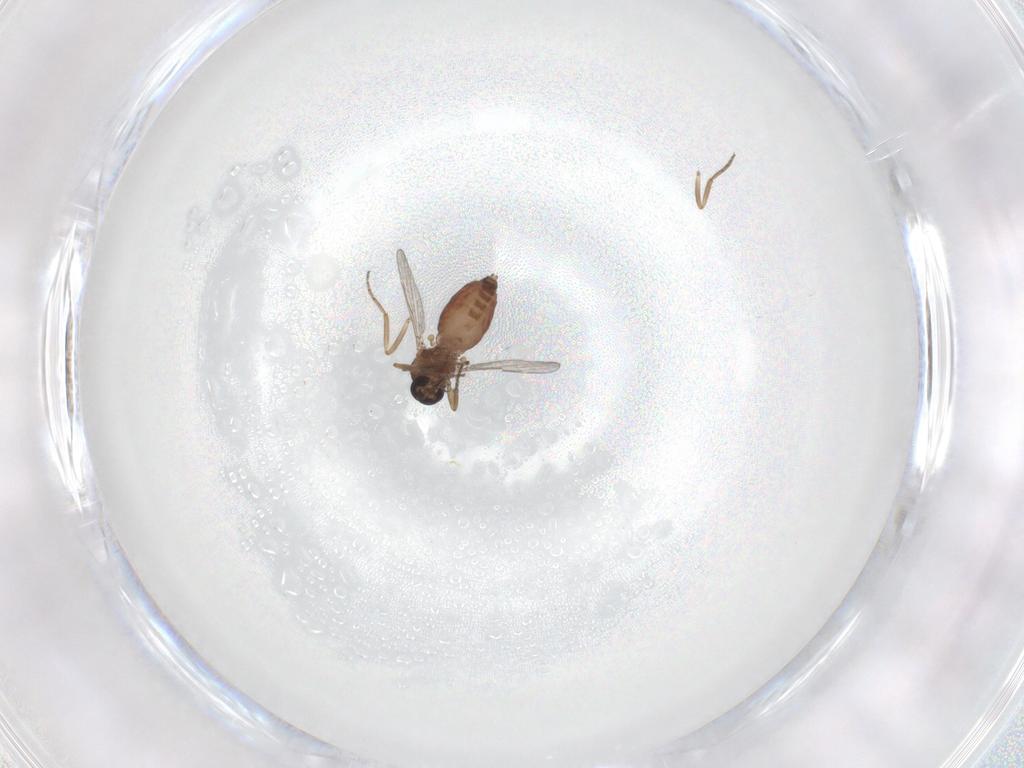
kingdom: Animalia
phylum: Arthropoda
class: Insecta
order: Diptera
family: Ceratopogonidae
